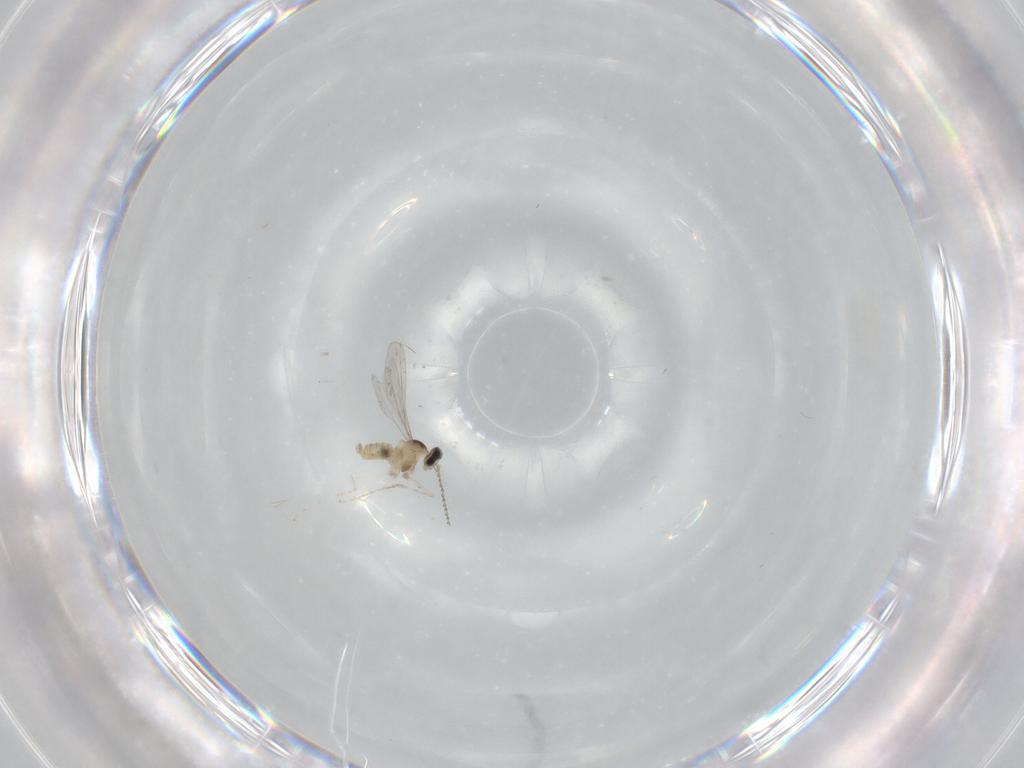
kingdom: Animalia
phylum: Arthropoda
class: Insecta
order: Diptera
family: Cecidomyiidae
